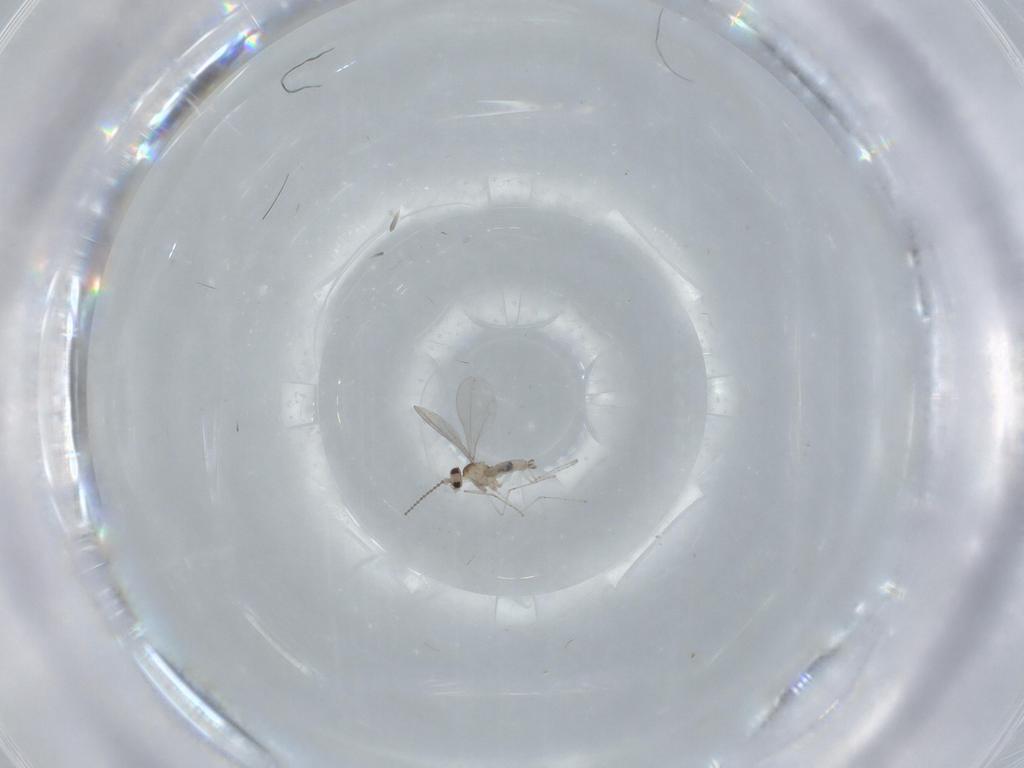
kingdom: Animalia
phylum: Arthropoda
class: Insecta
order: Diptera
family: Cecidomyiidae
